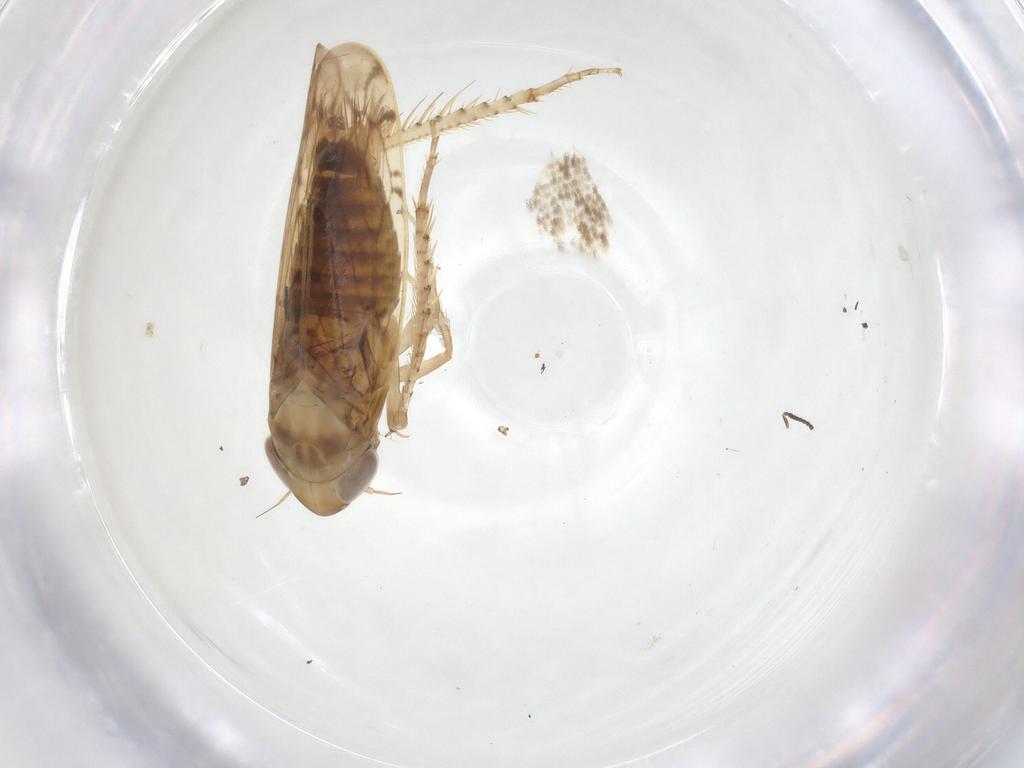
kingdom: Animalia
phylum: Arthropoda
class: Insecta
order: Hemiptera
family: Cicadellidae
